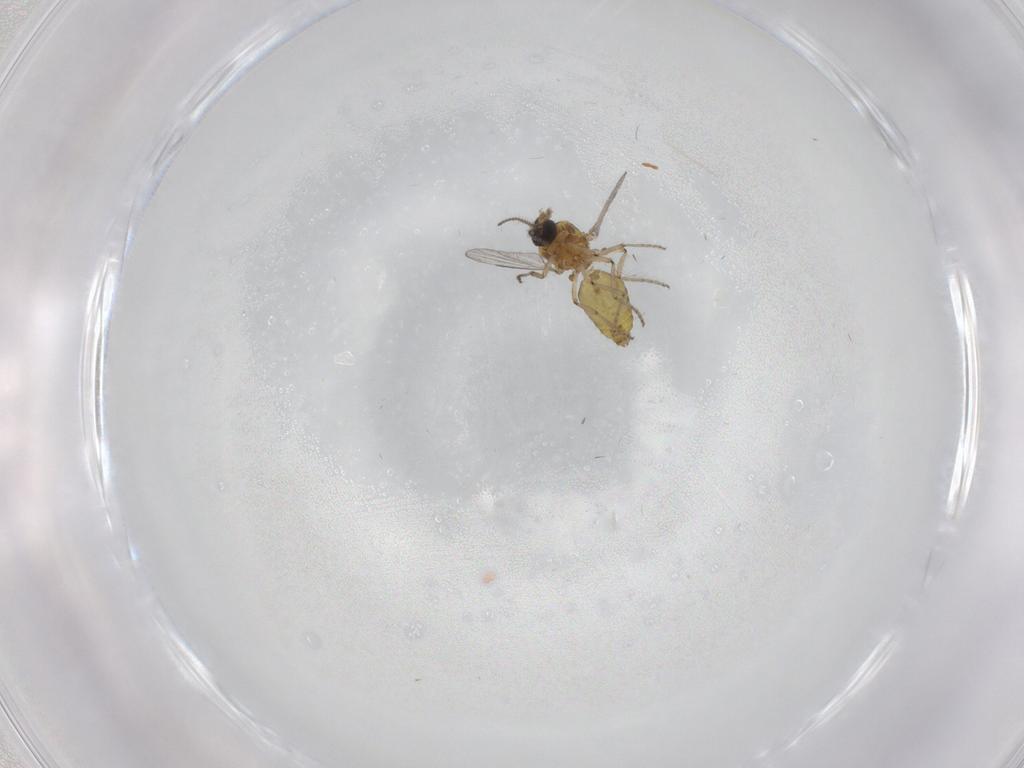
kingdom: Animalia
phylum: Arthropoda
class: Insecta
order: Diptera
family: Ceratopogonidae
